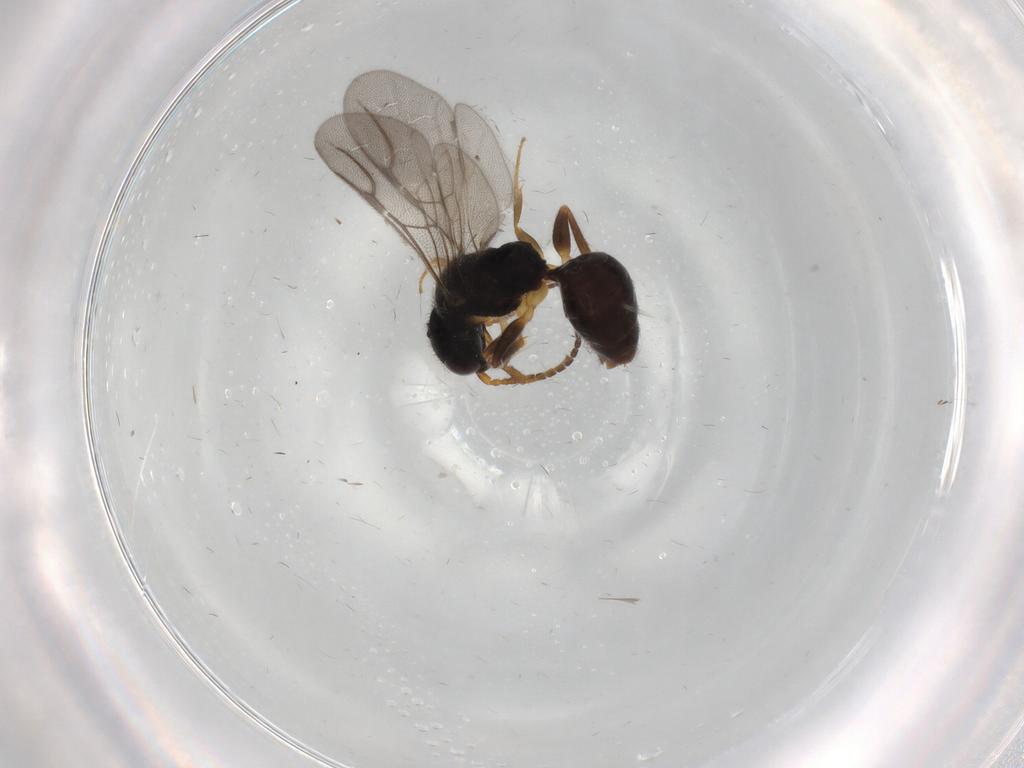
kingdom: Animalia
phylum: Arthropoda
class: Insecta
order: Hymenoptera
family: Bethylidae
